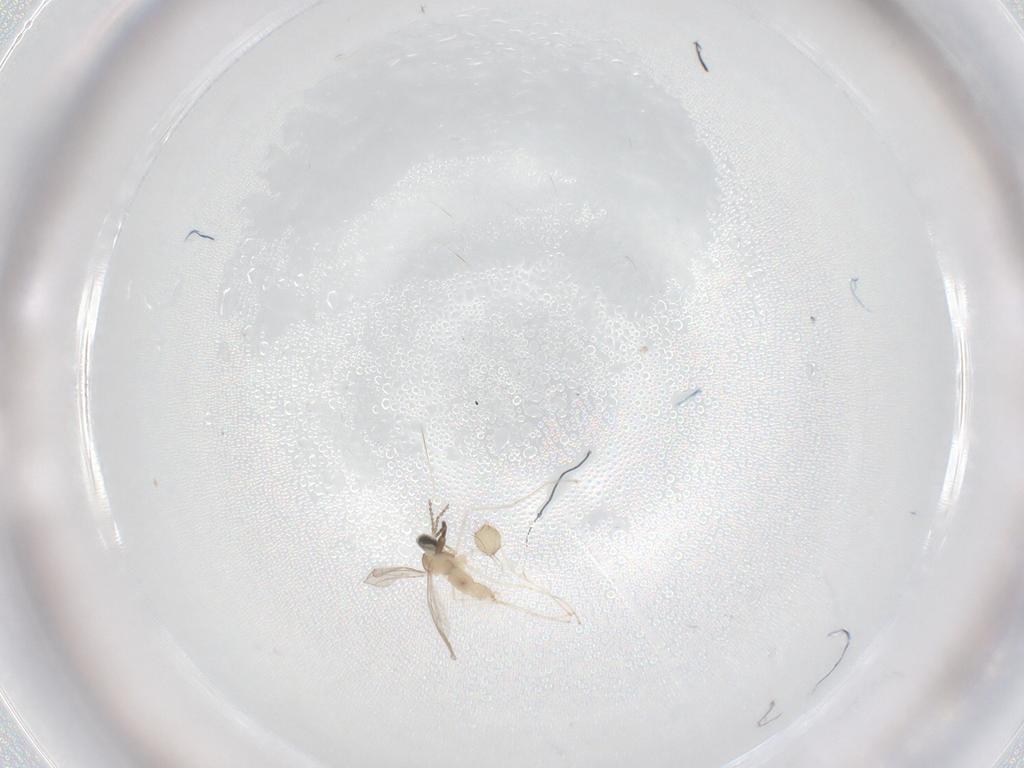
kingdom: Animalia
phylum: Arthropoda
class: Insecta
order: Diptera
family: Limoniidae
